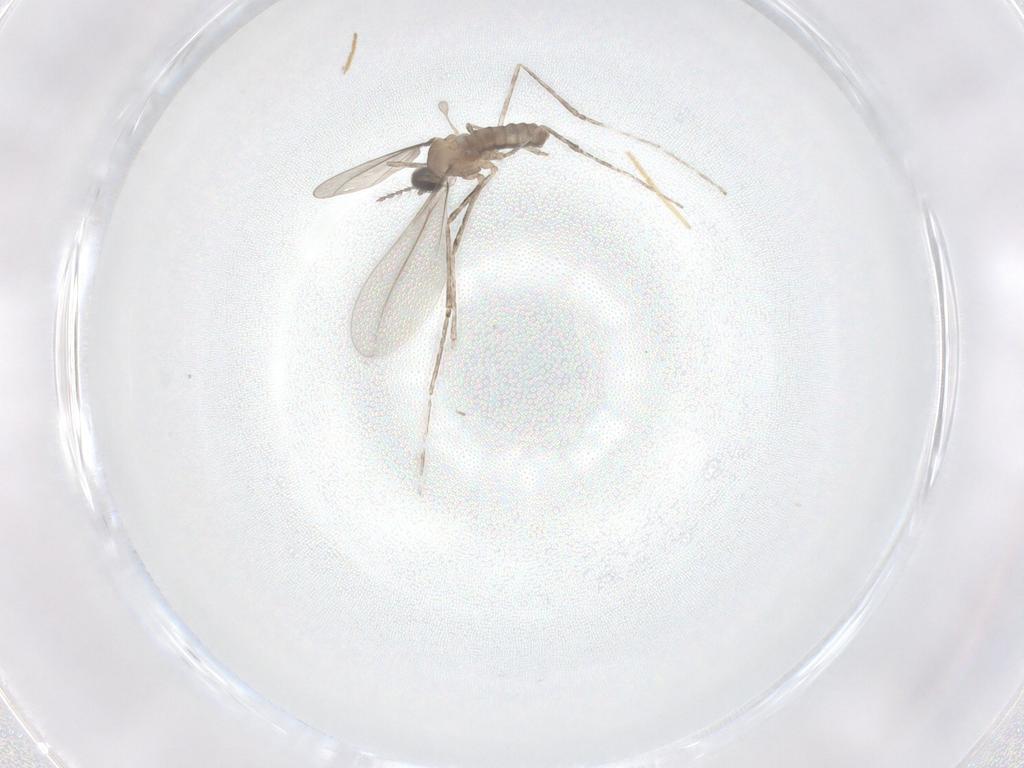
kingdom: Animalia
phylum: Arthropoda
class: Insecta
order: Diptera
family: Cecidomyiidae
